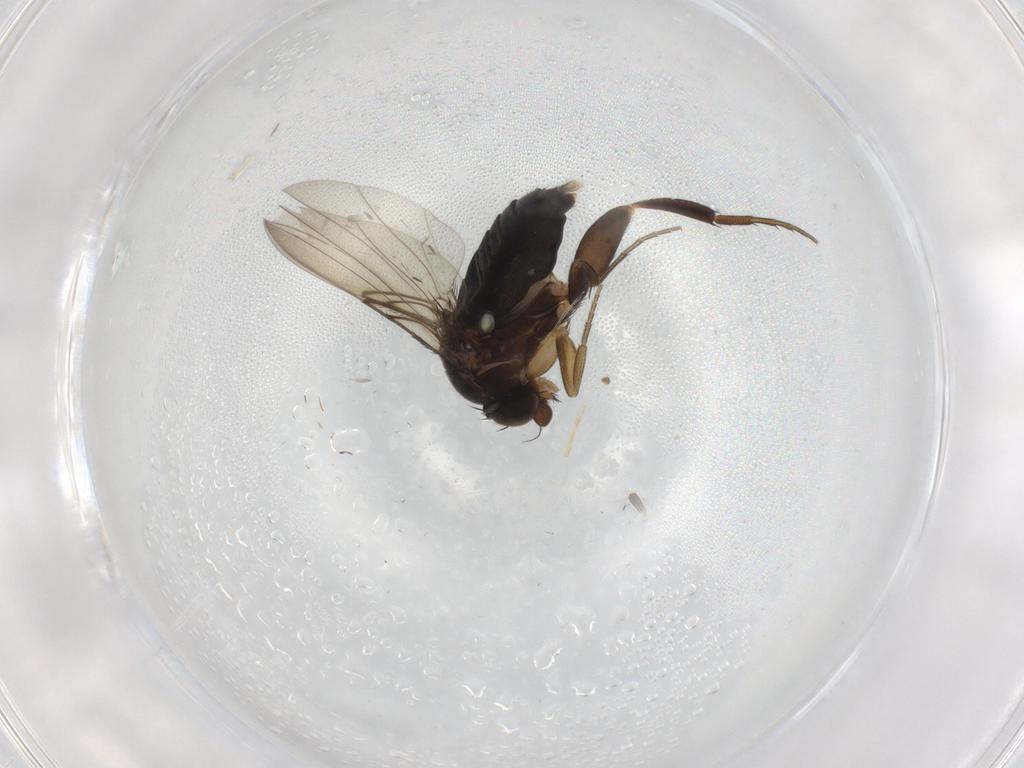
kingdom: Animalia
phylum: Arthropoda
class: Insecta
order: Diptera
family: Phoridae
